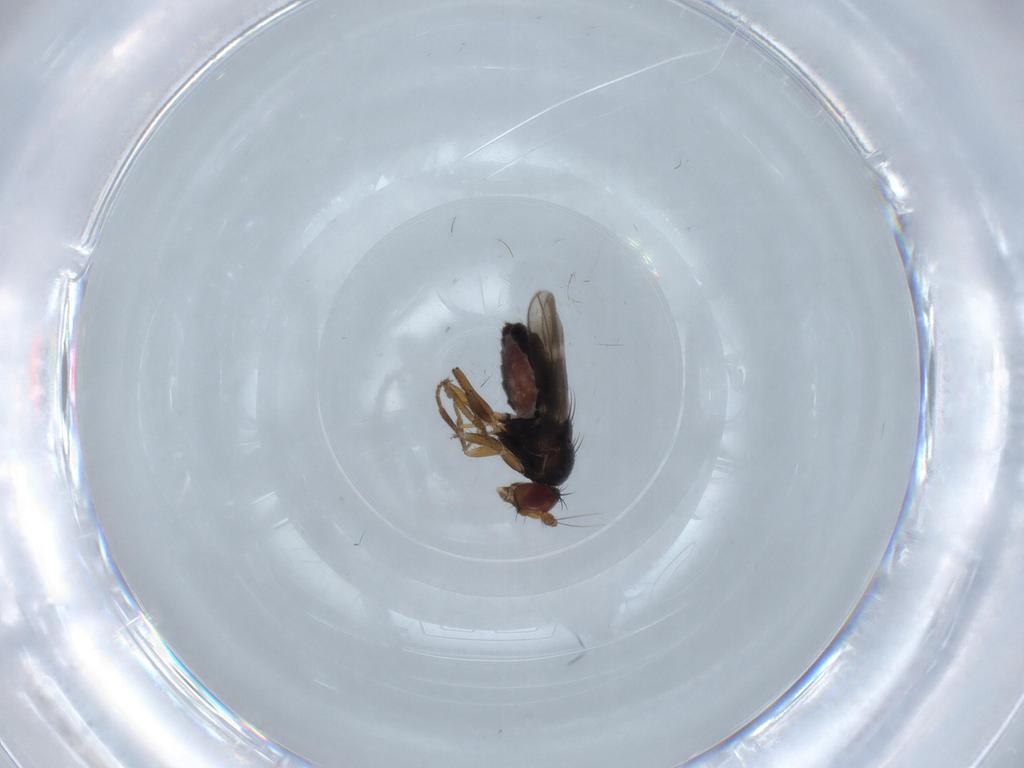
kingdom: Animalia
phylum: Arthropoda
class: Insecta
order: Diptera
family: Sphaeroceridae
